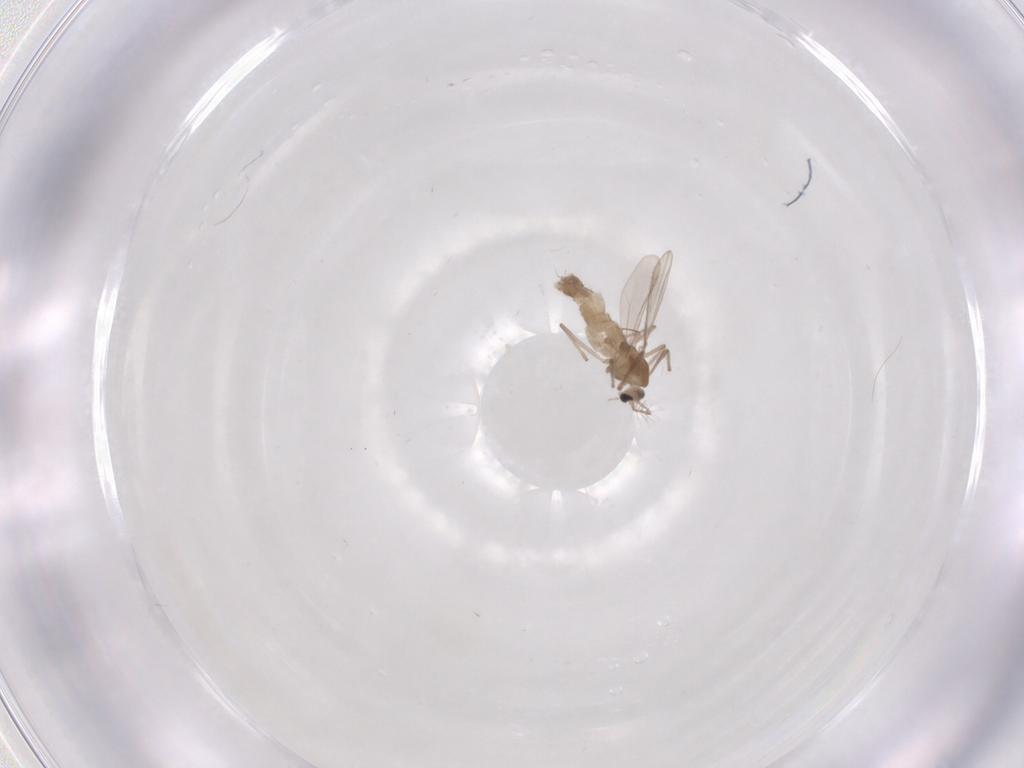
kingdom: Animalia
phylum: Arthropoda
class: Insecta
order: Diptera
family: Chironomidae
